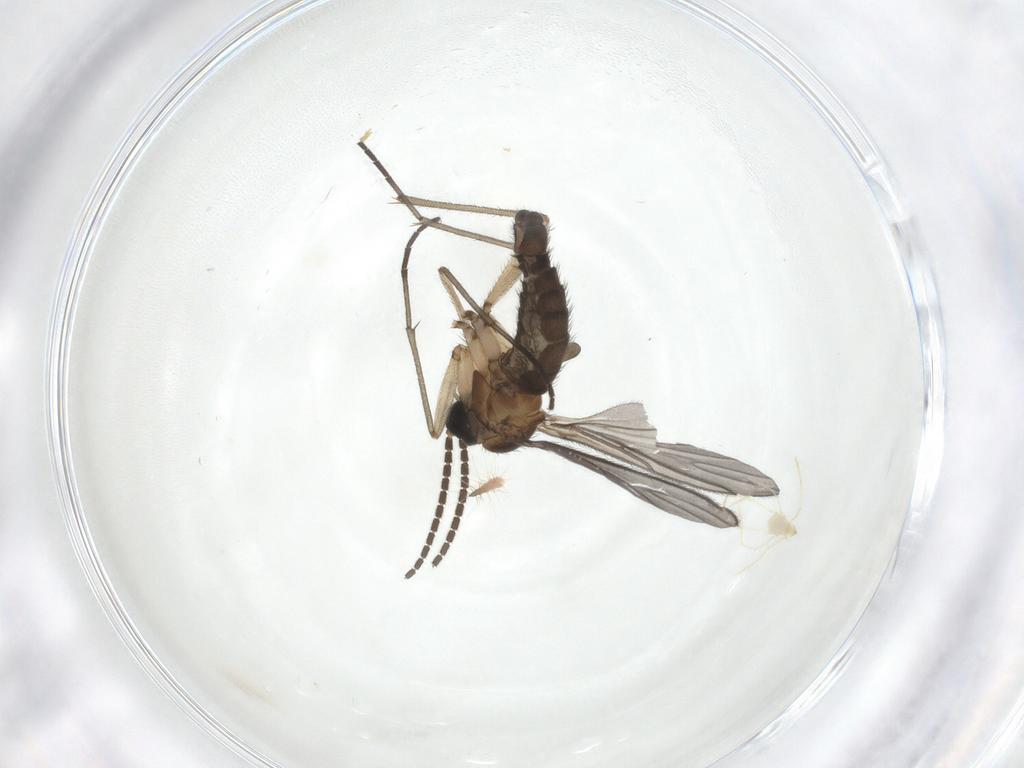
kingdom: Animalia
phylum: Arthropoda
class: Insecta
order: Diptera
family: Sciaridae
